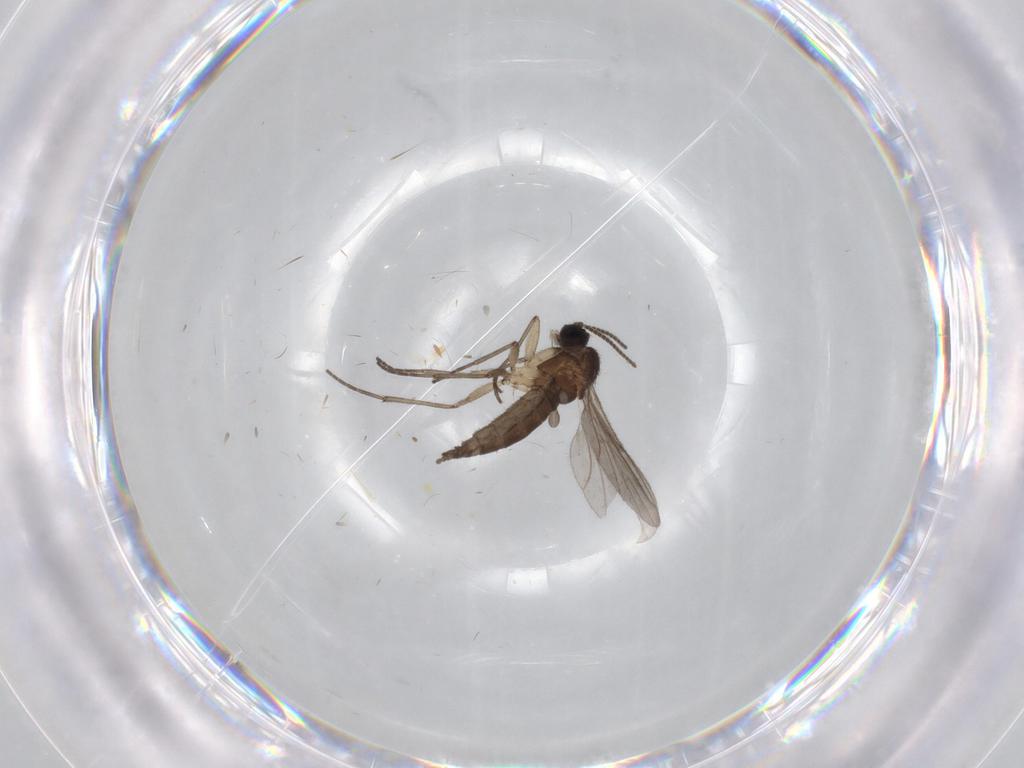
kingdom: Animalia
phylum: Arthropoda
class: Insecta
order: Diptera
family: Sciaridae
